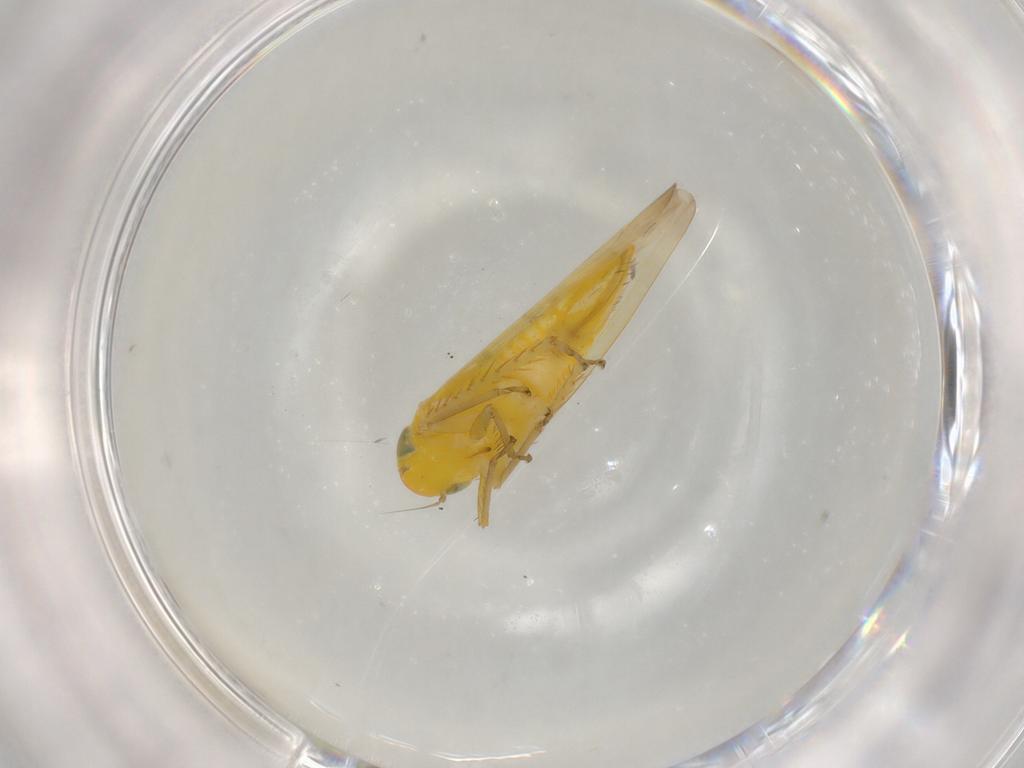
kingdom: Animalia
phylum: Arthropoda
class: Insecta
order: Hemiptera
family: Cicadellidae
